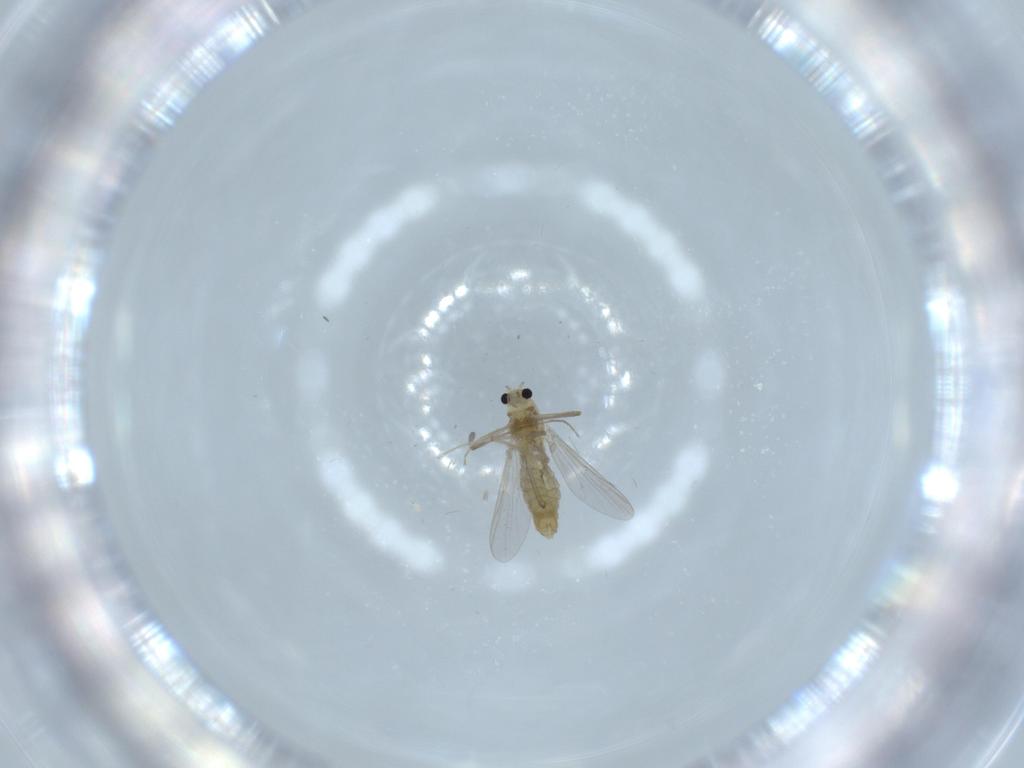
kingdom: Animalia
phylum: Arthropoda
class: Insecta
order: Diptera
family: Chironomidae
